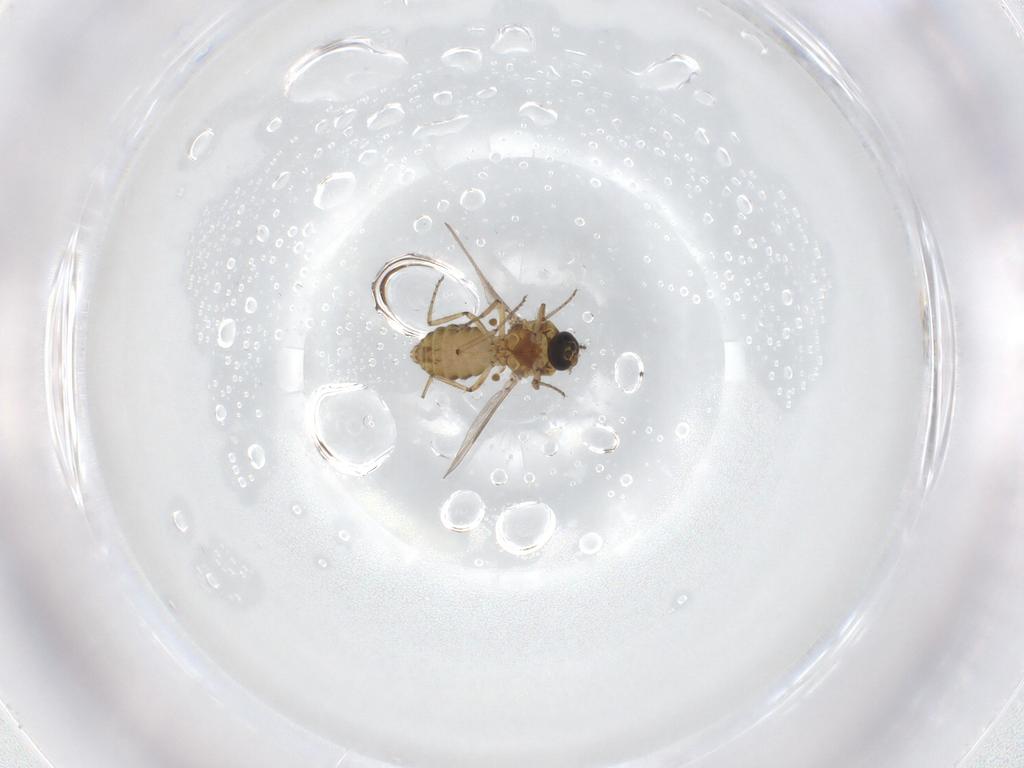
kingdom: Animalia
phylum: Arthropoda
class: Insecta
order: Diptera
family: Ceratopogonidae
